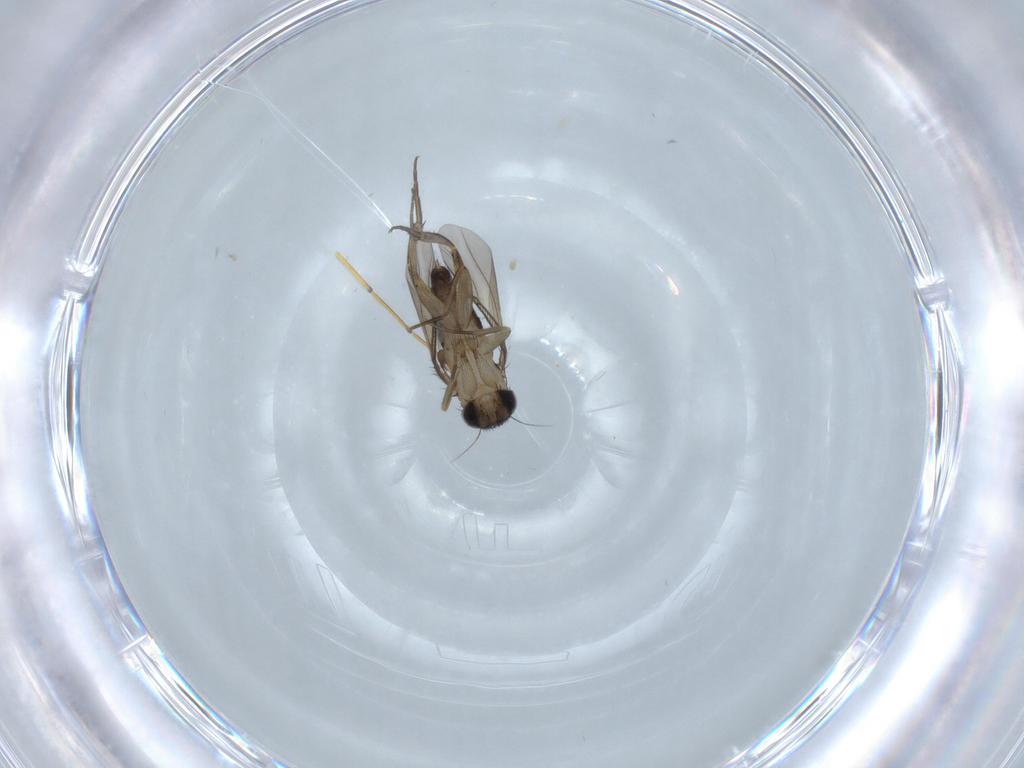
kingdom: Animalia
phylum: Arthropoda
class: Insecta
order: Diptera
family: Phoridae
